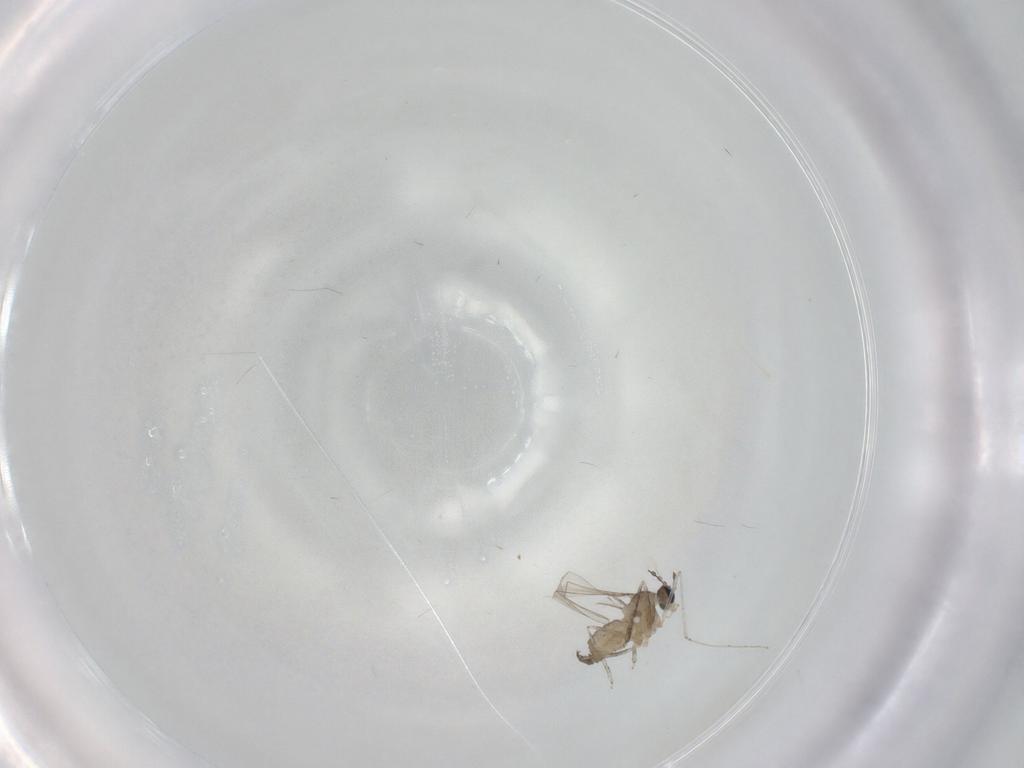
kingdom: Animalia
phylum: Arthropoda
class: Insecta
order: Diptera
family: Cecidomyiidae
